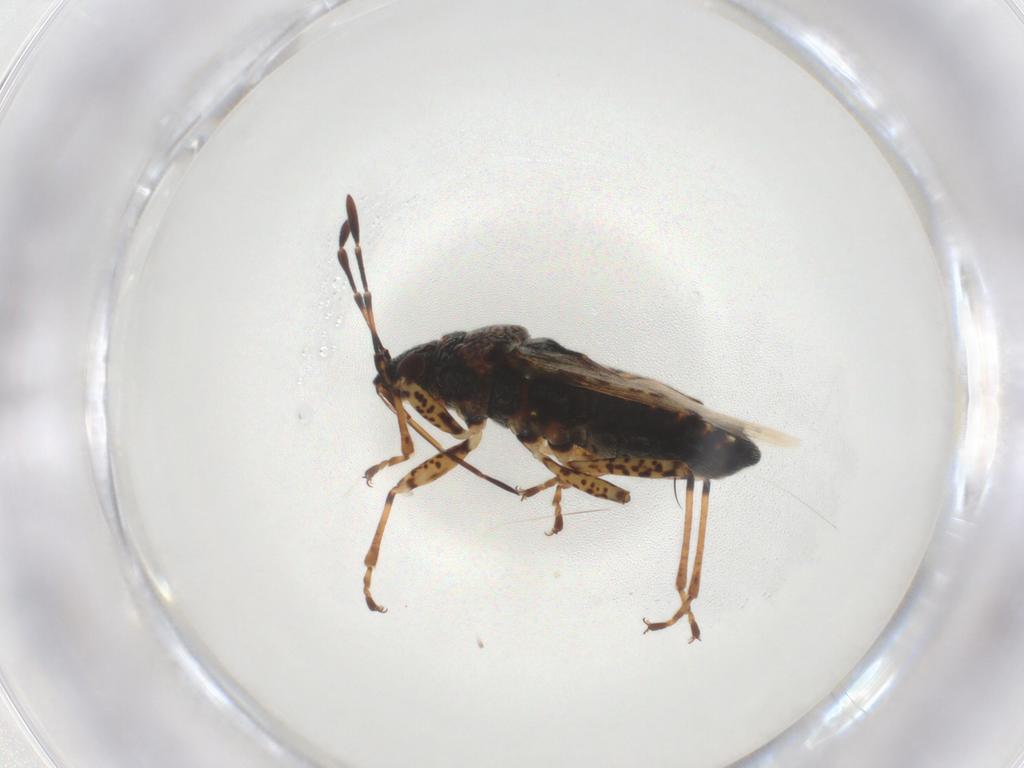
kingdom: Animalia
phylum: Arthropoda
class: Insecta
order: Hemiptera
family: Lygaeidae
